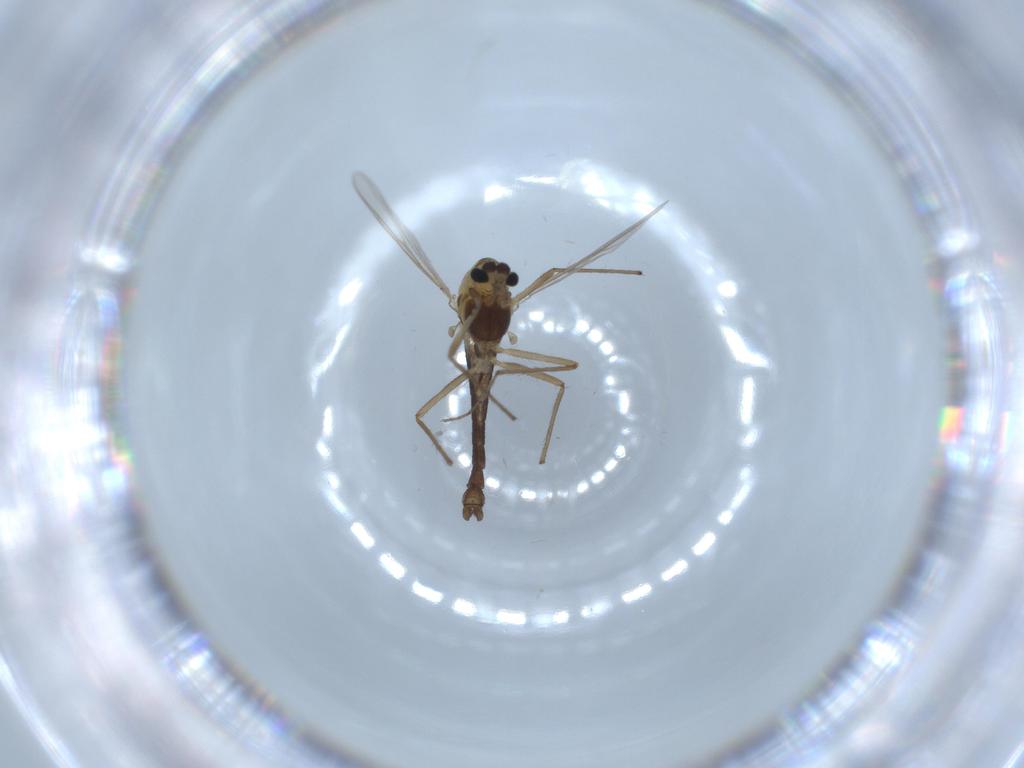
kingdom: Animalia
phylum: Arthropoda
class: Insecta
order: Diptera
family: Chironomidae
